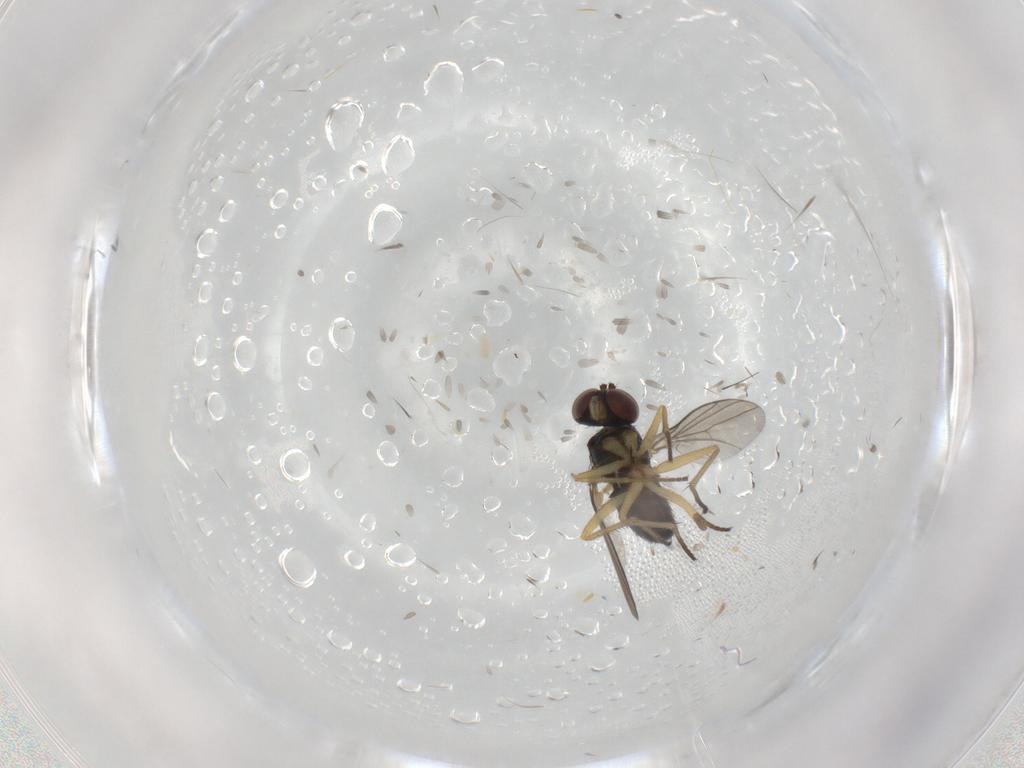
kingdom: Animalia
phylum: Arthropoda
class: Insecta
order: Diptera
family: Dolichopodidae
